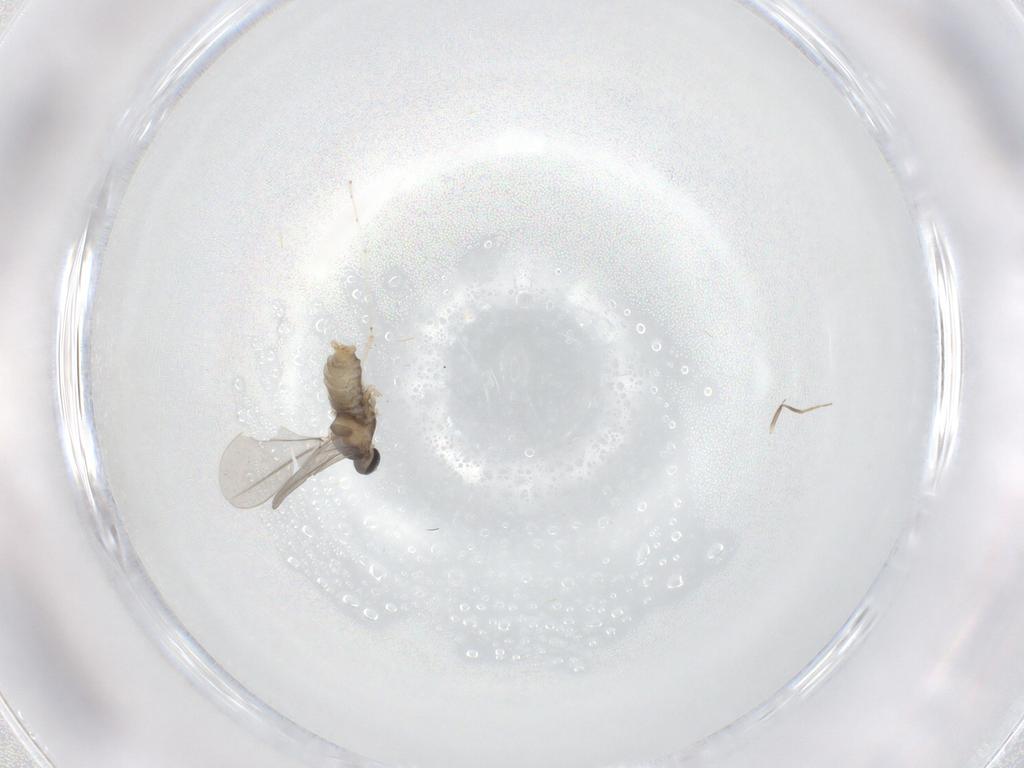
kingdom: Animalia
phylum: Arthropoda
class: Insecta
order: Diptera
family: Cecidomyiidae
